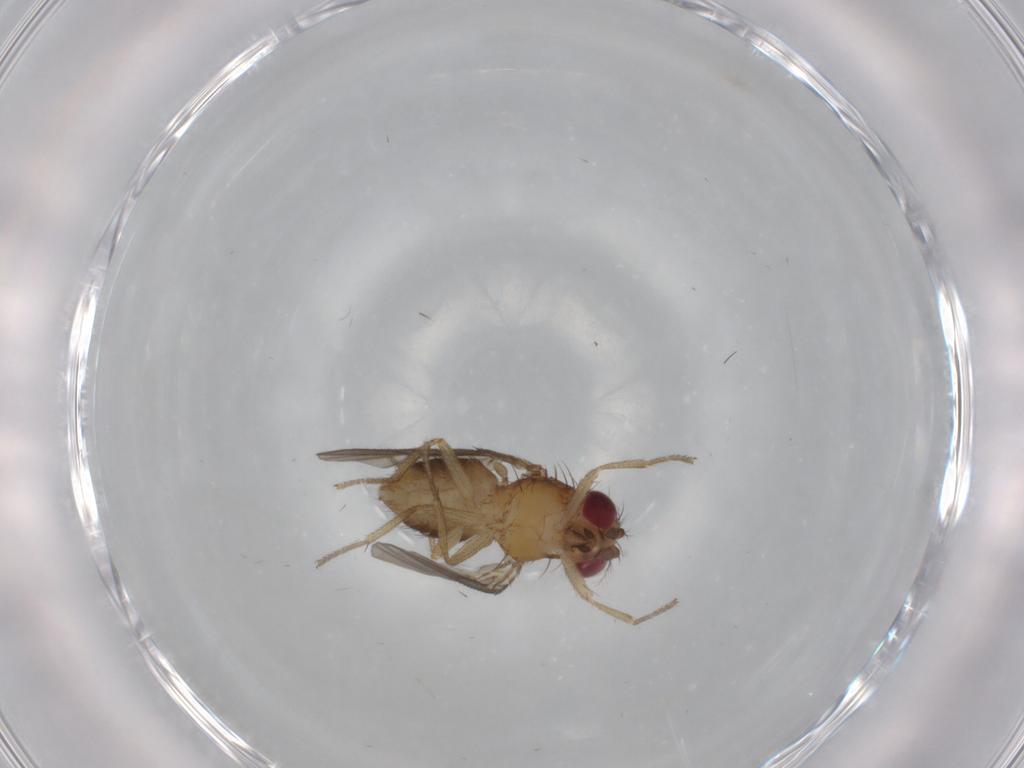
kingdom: Animalia
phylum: Arthropoda
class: Insecta
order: Diptera
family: Drosophilidae
